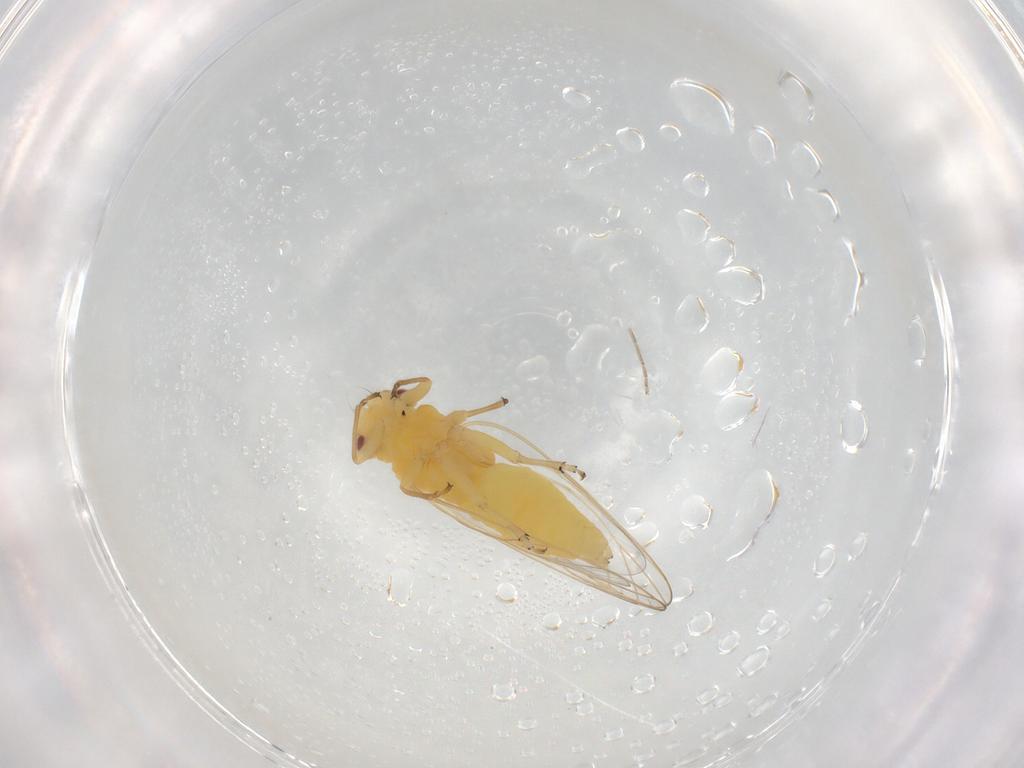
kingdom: Animalia
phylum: Arthropoda
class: Insecta
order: Hemiptera
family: Psyllidae
